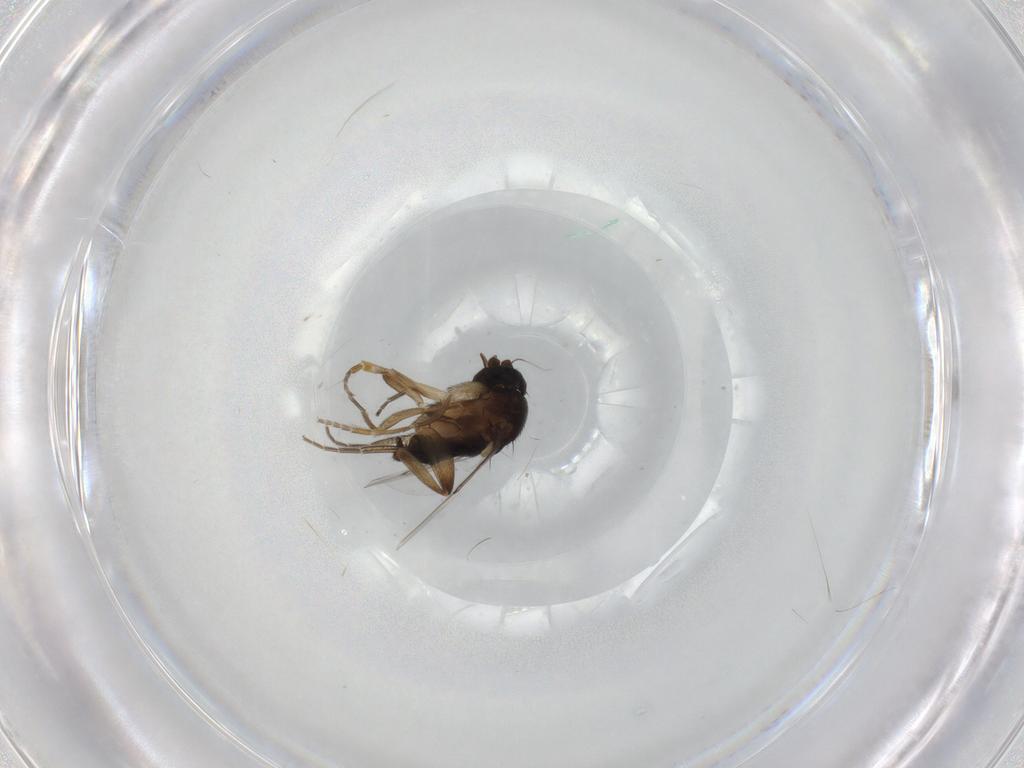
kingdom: Animalia
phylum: Arthropoda
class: Insecta
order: Diptera
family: Phoridae
